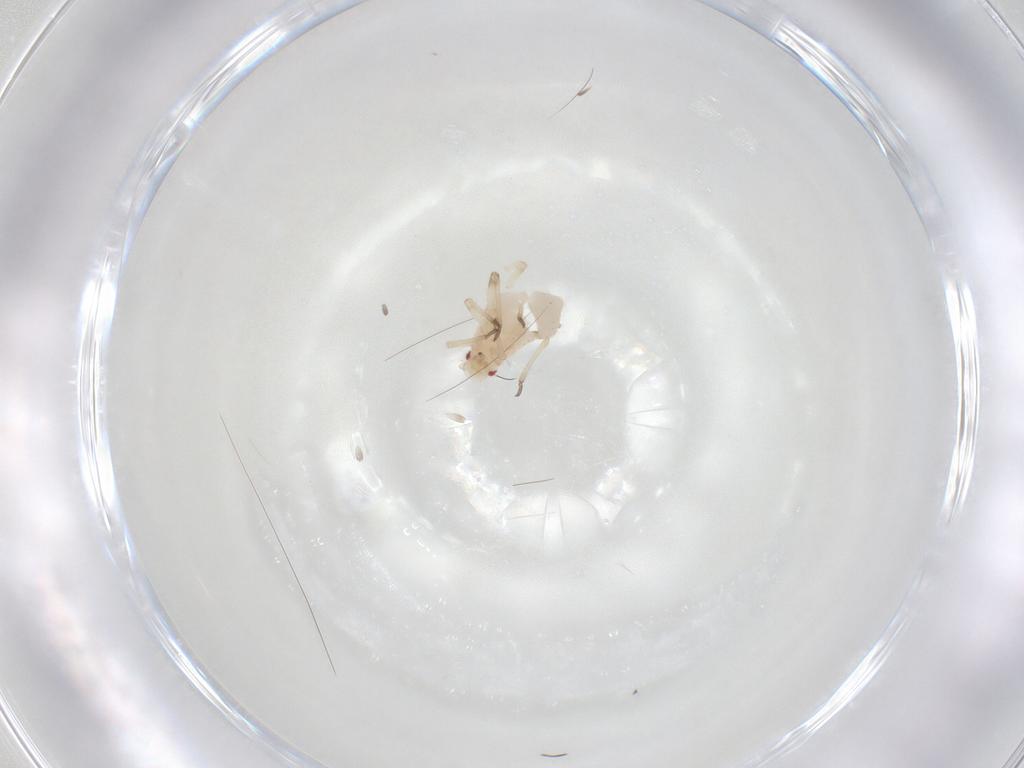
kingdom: Animalia
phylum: Arthropoda
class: Insecta
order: Hemiptera
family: Aphididae
